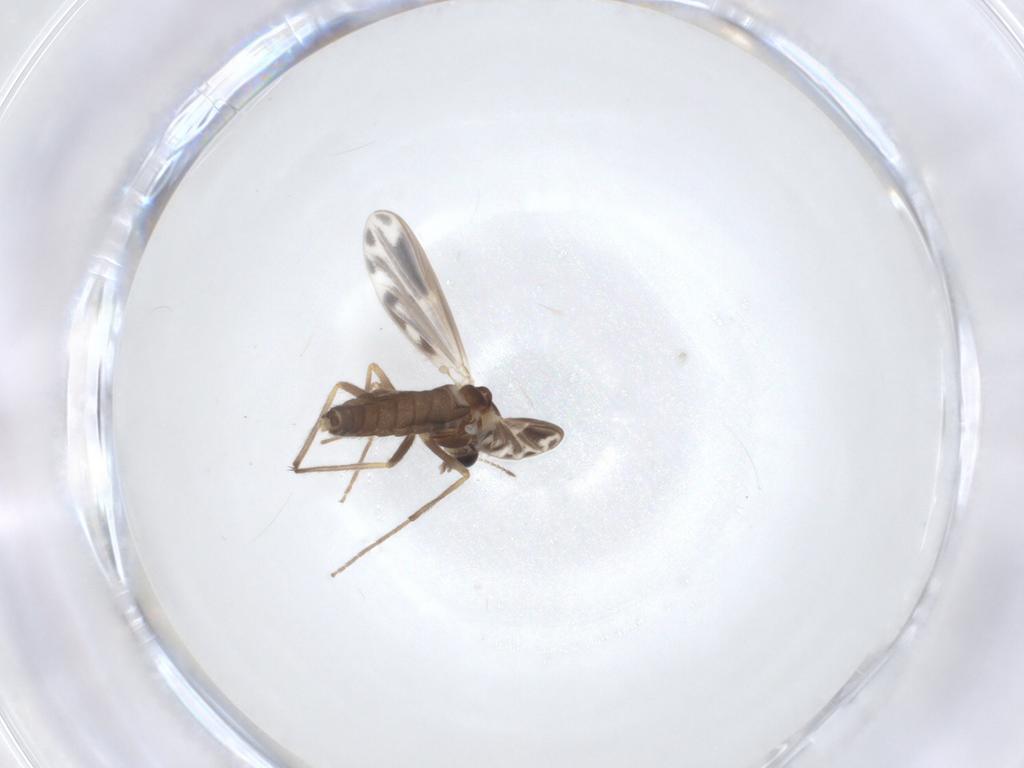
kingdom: Animalia
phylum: Arthropoda
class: Insecta
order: Diptera
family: Chironomidae
